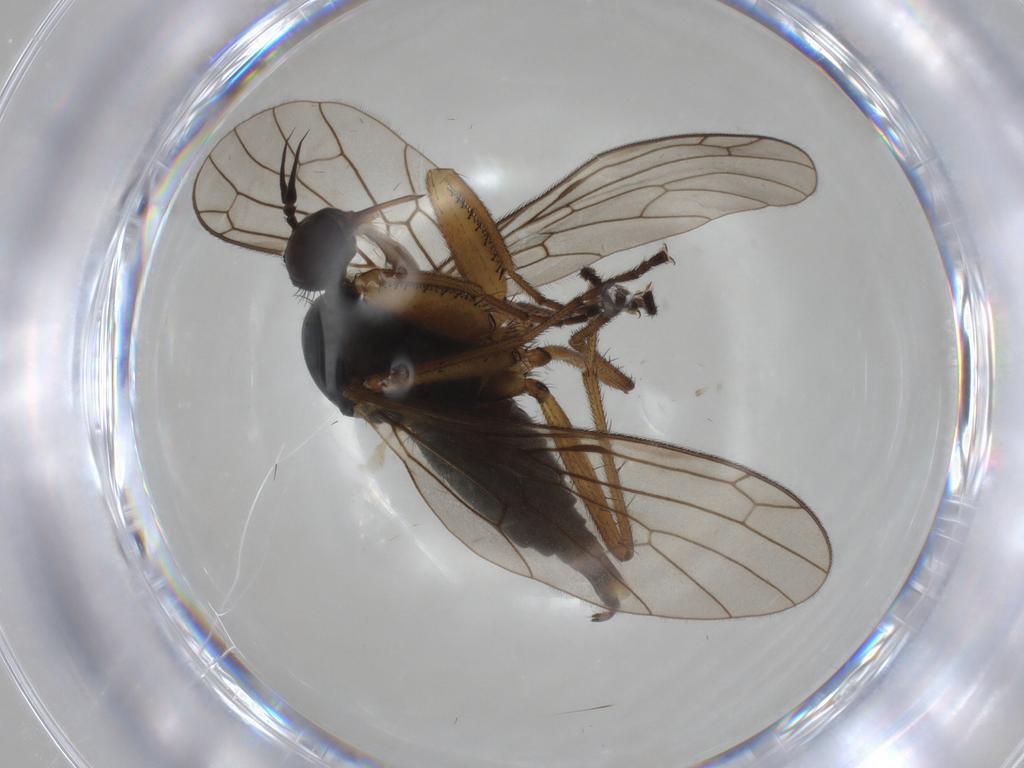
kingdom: Animalia
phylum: Arthropoda
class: Insecta
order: Diptera
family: Empididae
